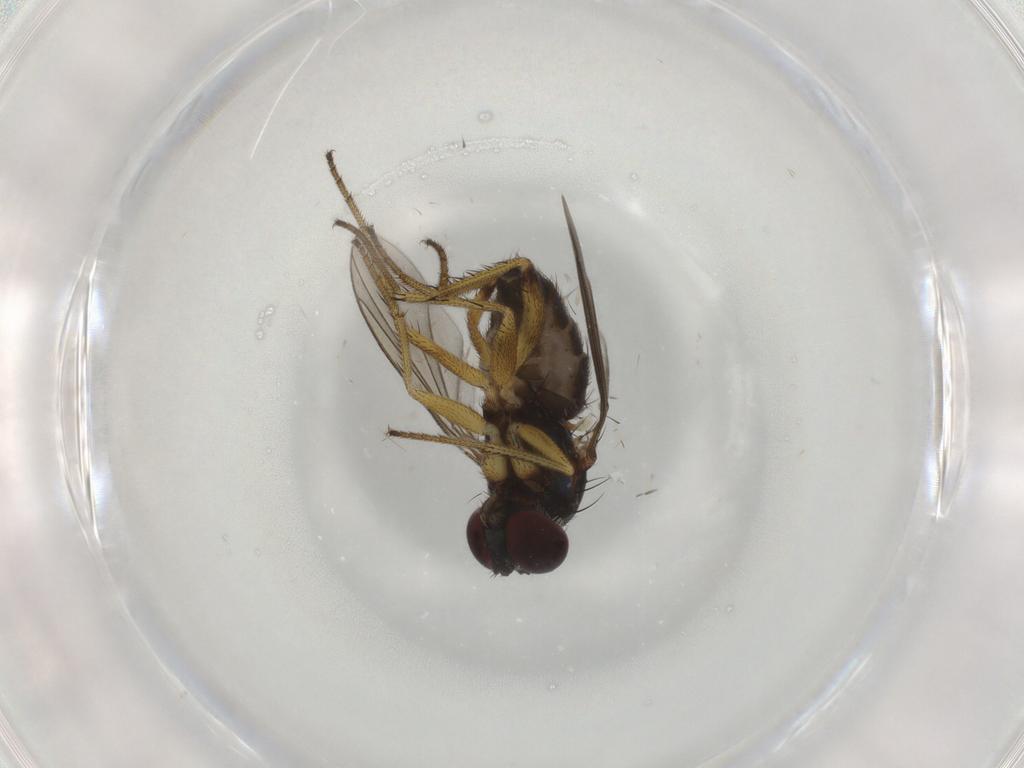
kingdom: Animalia
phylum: Arthropoda
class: Insecta
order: Diptera
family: Dolichopodidae
